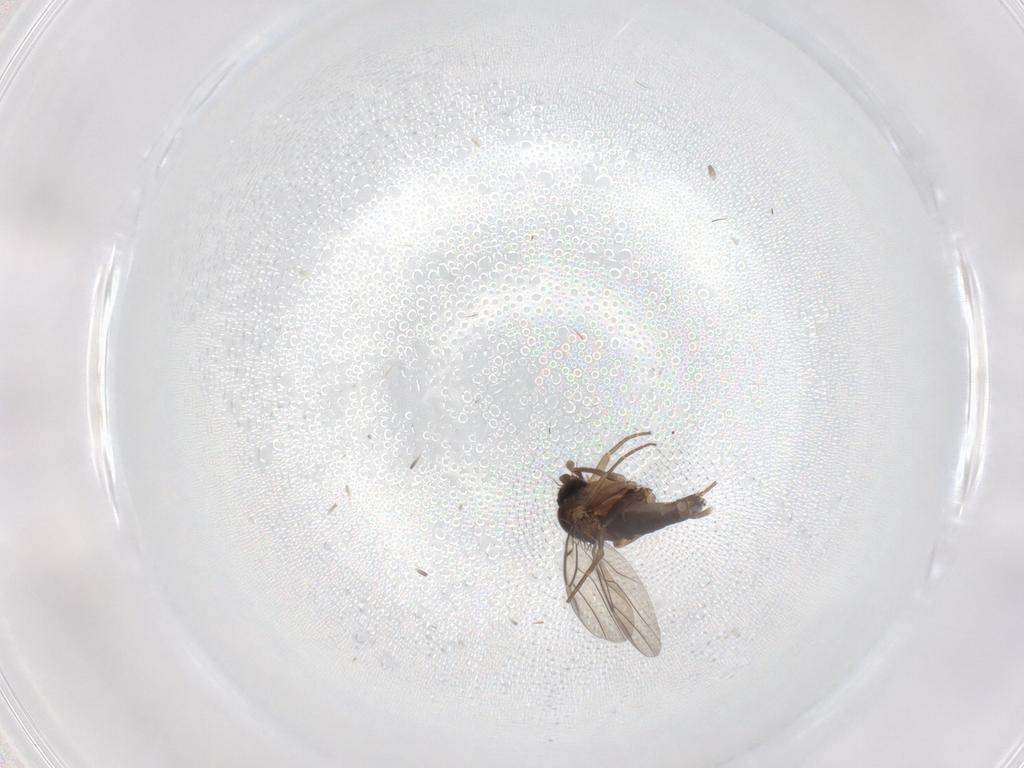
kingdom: Animalia
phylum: Arthropoda
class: Insecta
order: Diptera
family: Phoridae
